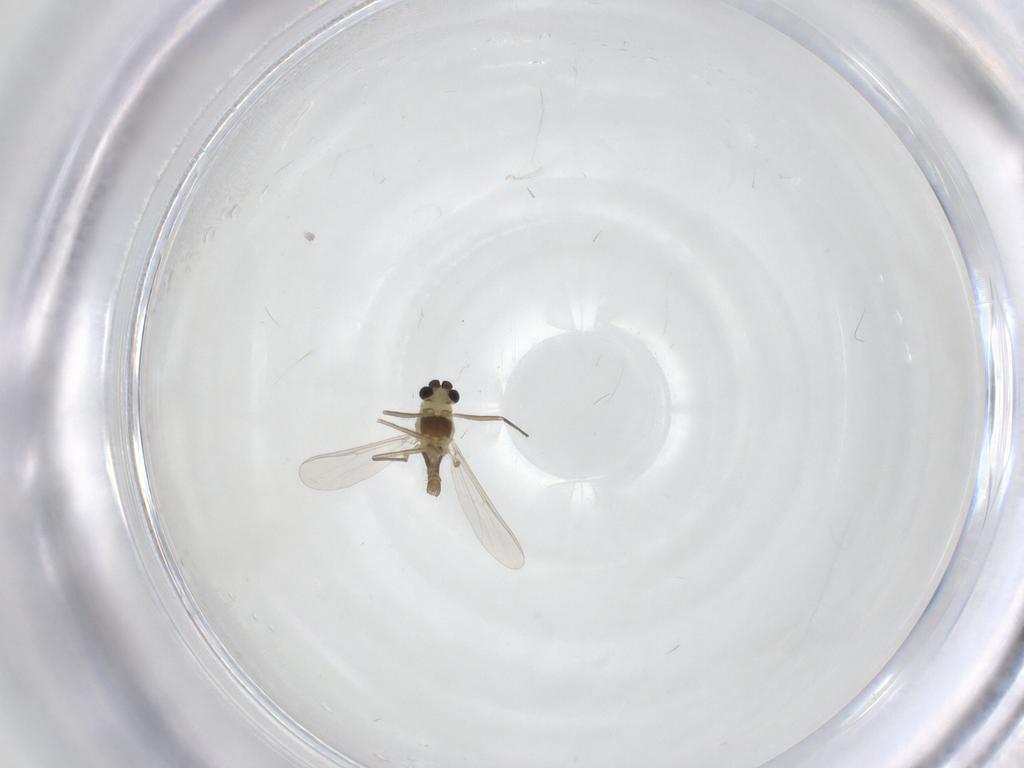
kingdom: Animalia
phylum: Arthropoda
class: Insecta
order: Diptera
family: Chironomidae
